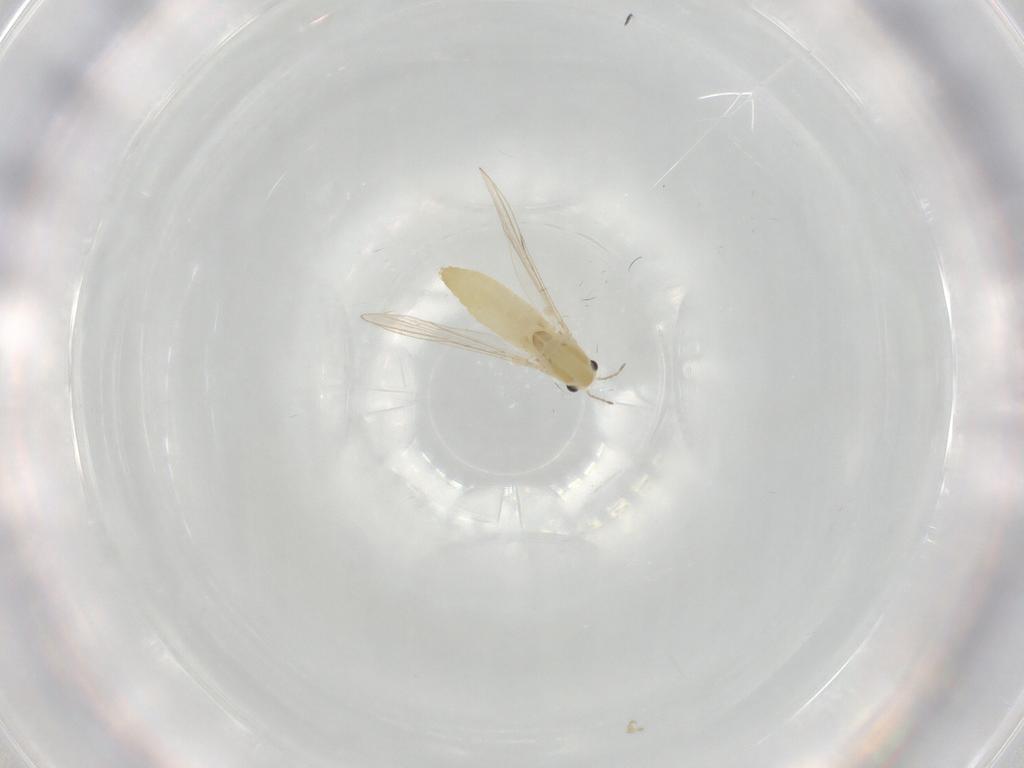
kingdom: Animalia
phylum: Arthropoda
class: Insecta
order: Diptera
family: Chironomidae
